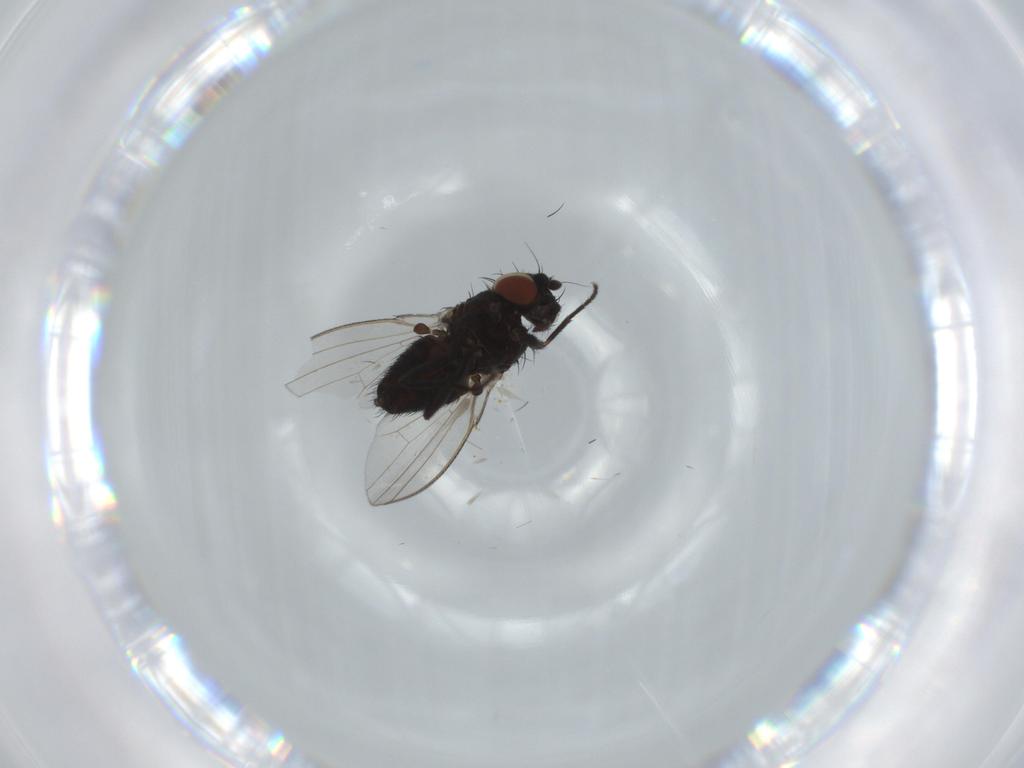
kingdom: Animalia
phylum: Arthropoda
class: Insecta
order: Diptera
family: Milichiidae
